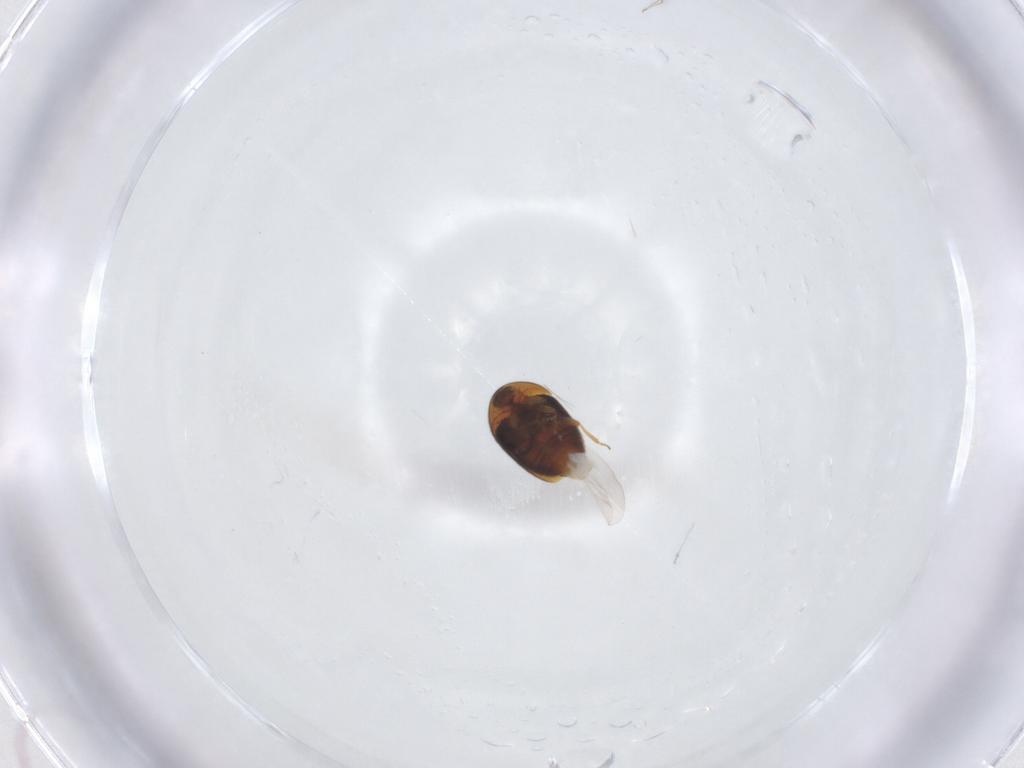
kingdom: Animalia
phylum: Arthropoda
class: Insecta
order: Coleoptera
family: Corylophidae
